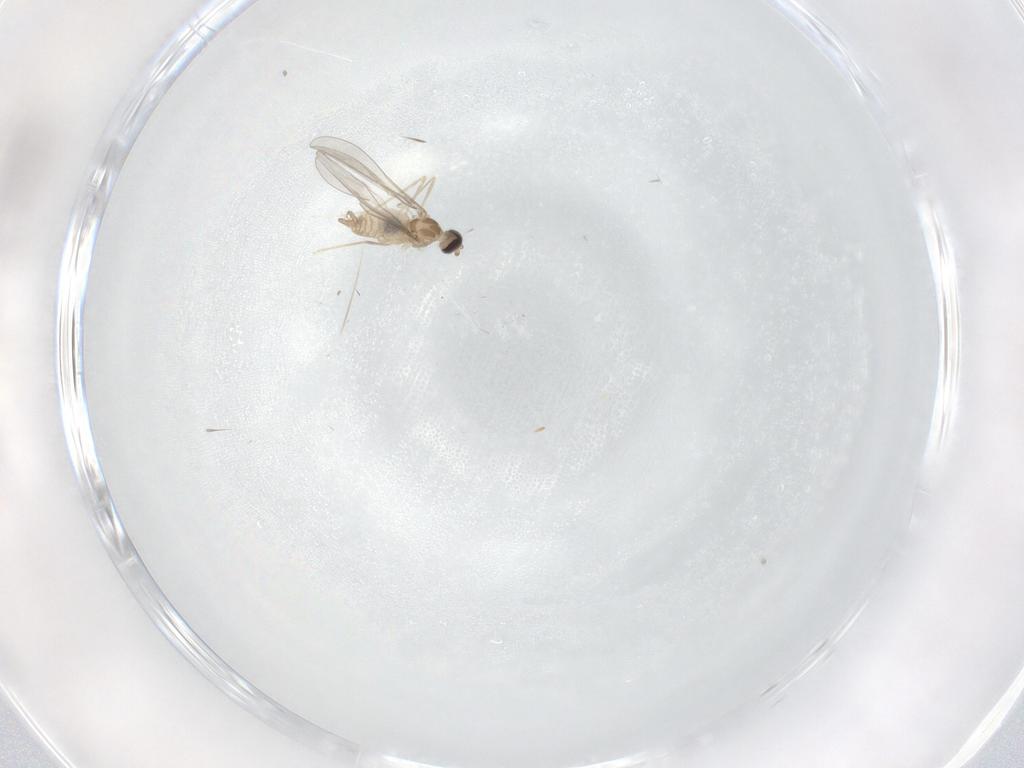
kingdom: Animalia
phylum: Arthropoda
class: Insecta
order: Diptera
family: Cecidomyiidae
